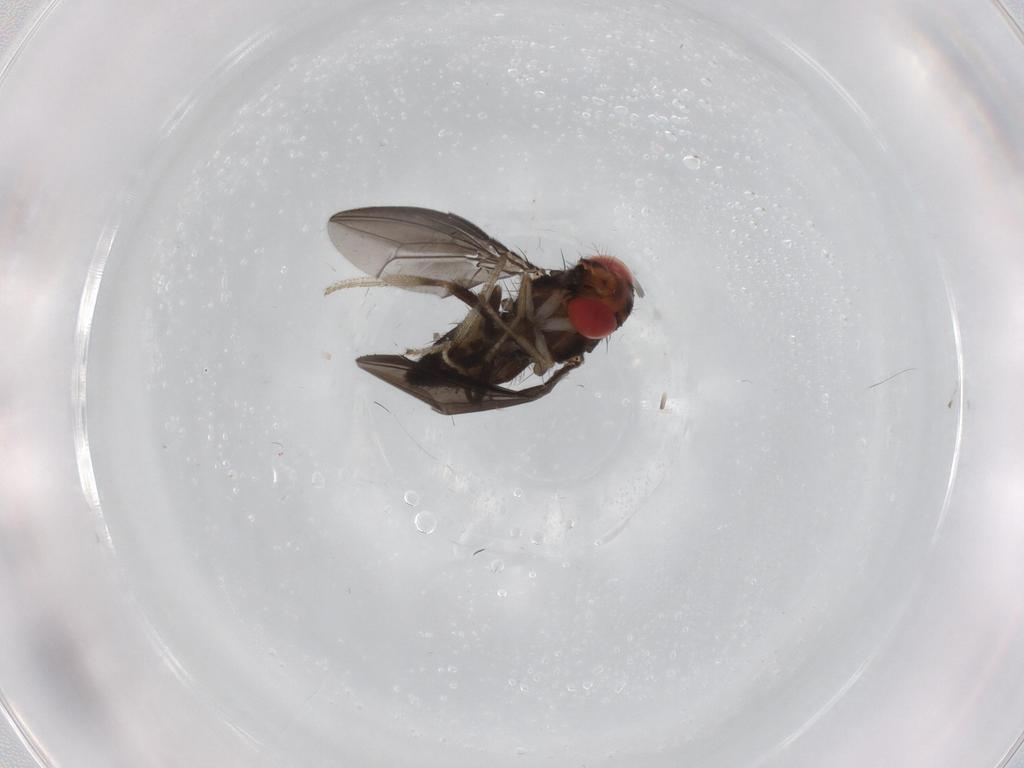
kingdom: Animalia
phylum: Arthropoda
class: Insecta
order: Diptera
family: Drosophilidae
